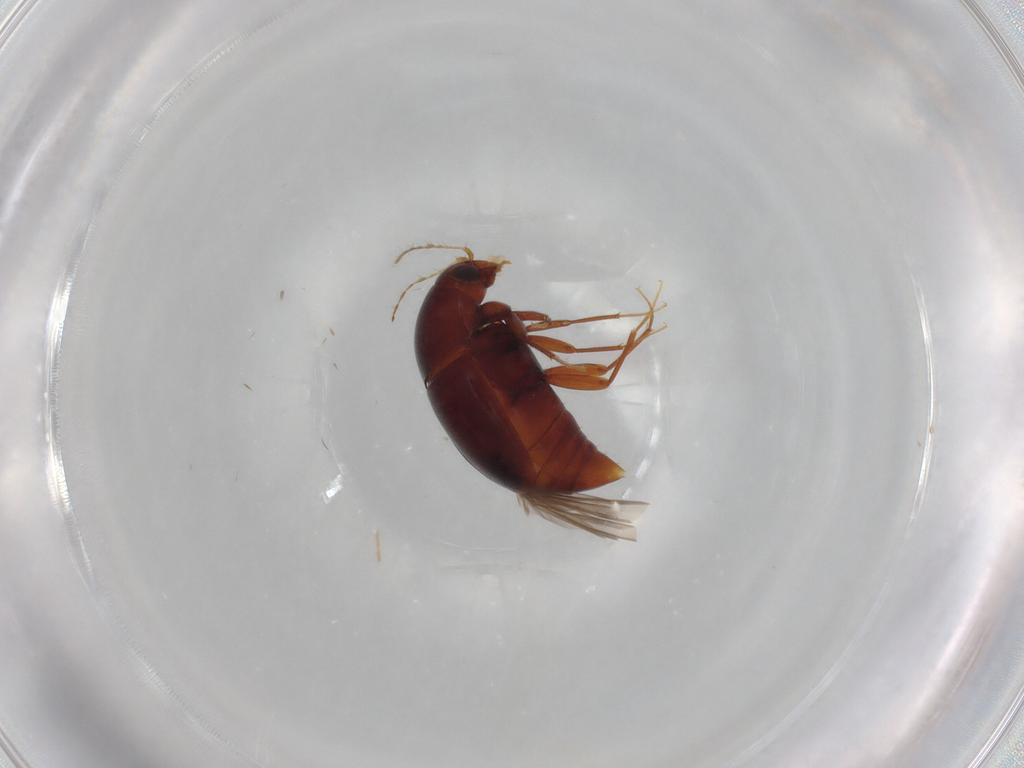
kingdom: Animalia
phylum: Arthropoda
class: Insecta
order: Coleoptera
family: Staphylinidae
